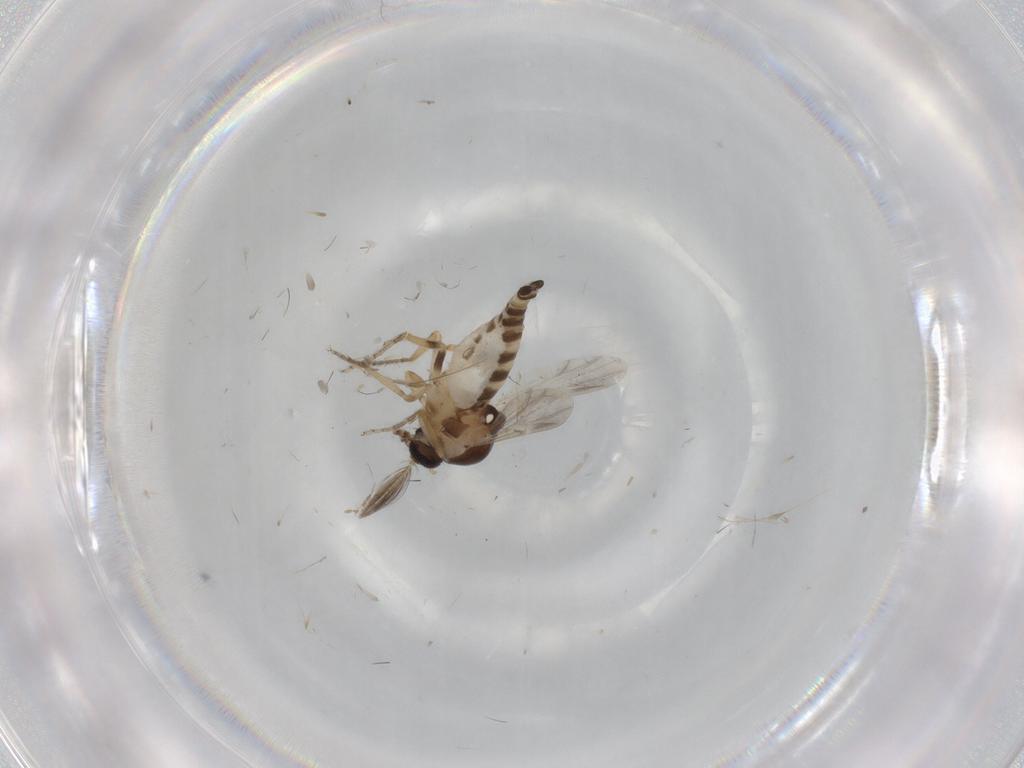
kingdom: Animalia
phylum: Arthropoda
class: Insecta
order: Diptera
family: Ceratopogonidae
